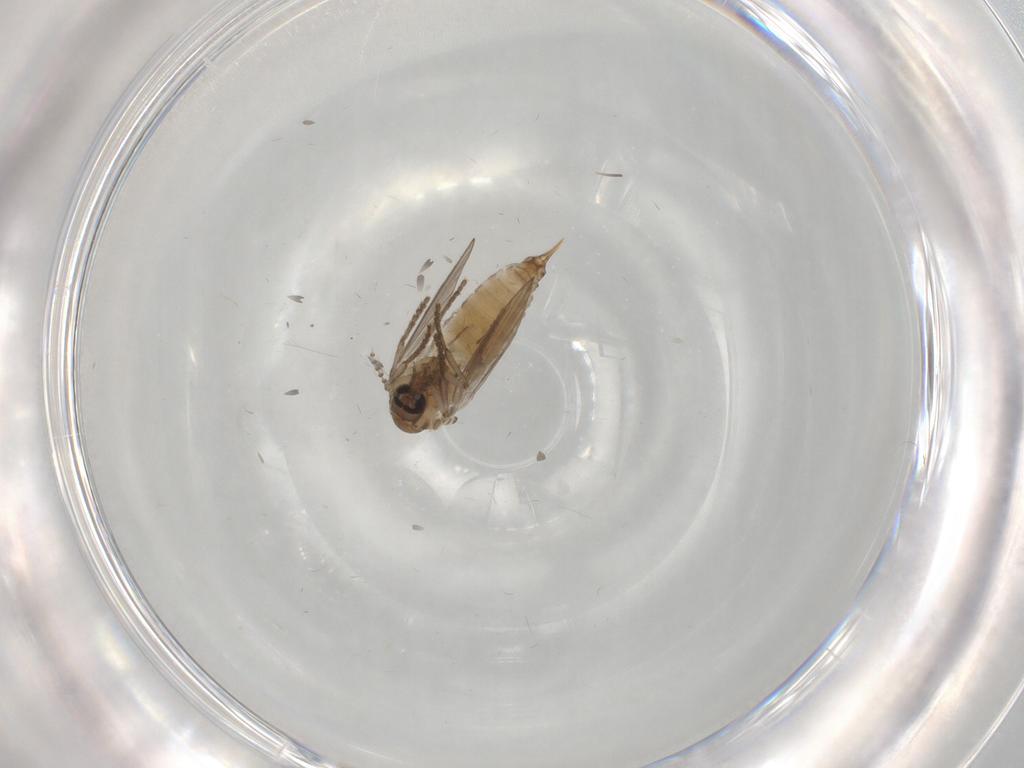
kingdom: Animalia
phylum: Arthropoda
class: Insecta
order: Diptera
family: Psychodidae
